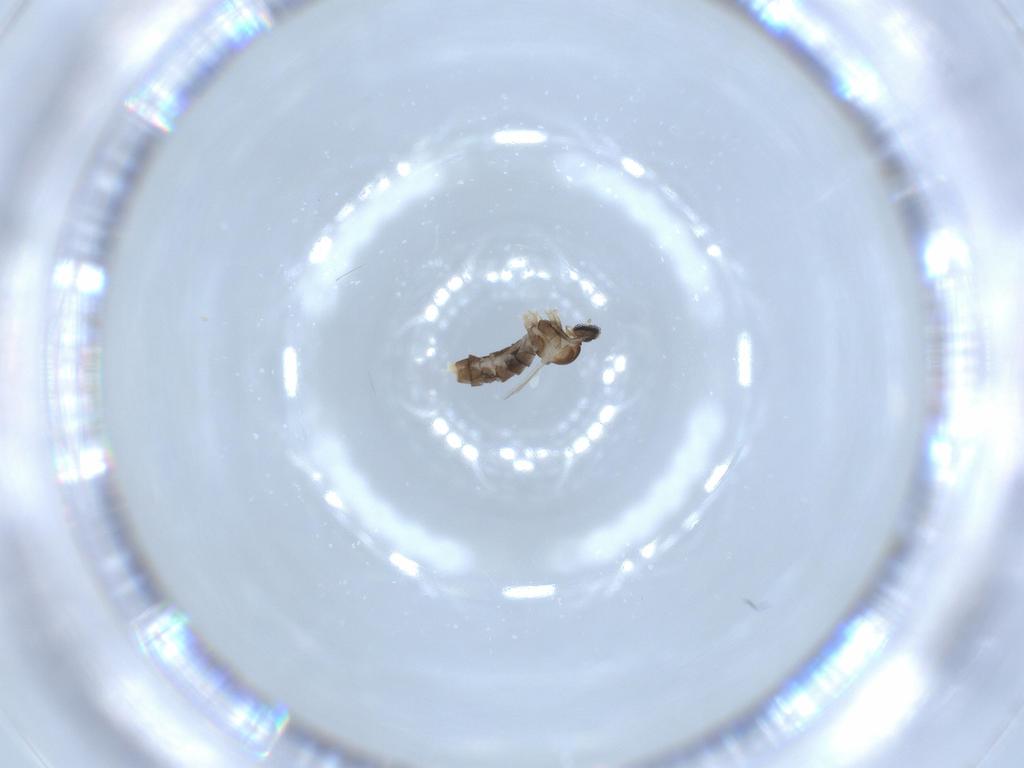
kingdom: Animalia
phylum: Arthropoda
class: Insecta
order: Diptera
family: Cecidomyiidae
